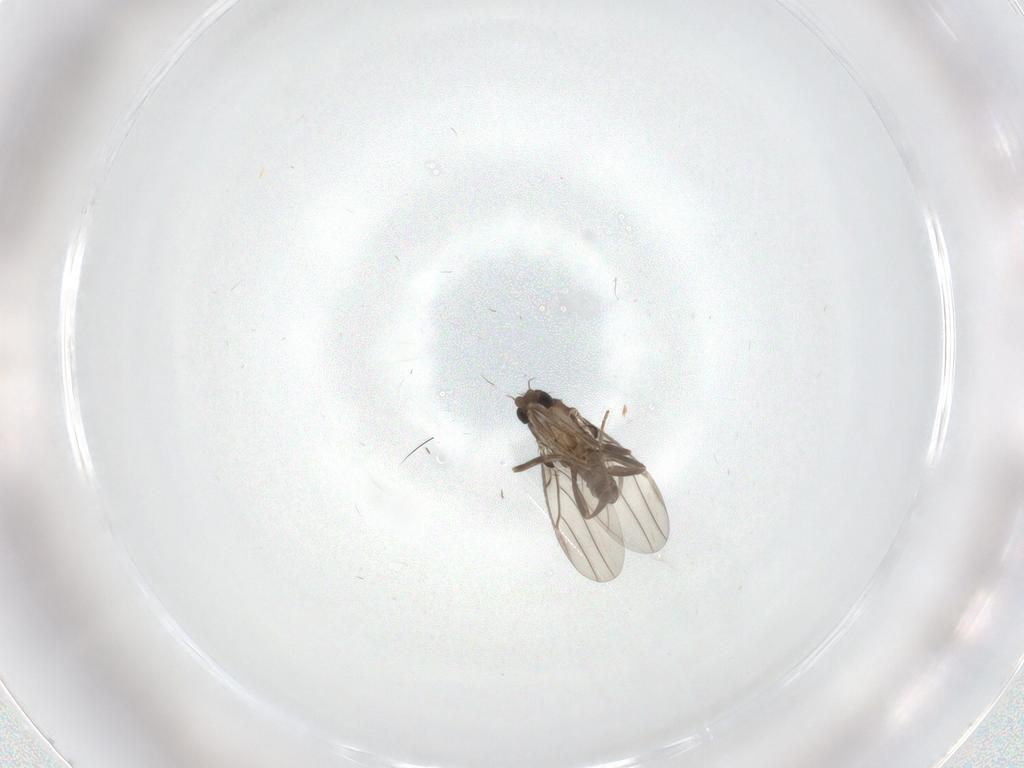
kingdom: Animalia
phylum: Arthropoda
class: Insecta
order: Diptera
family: Phoridae
